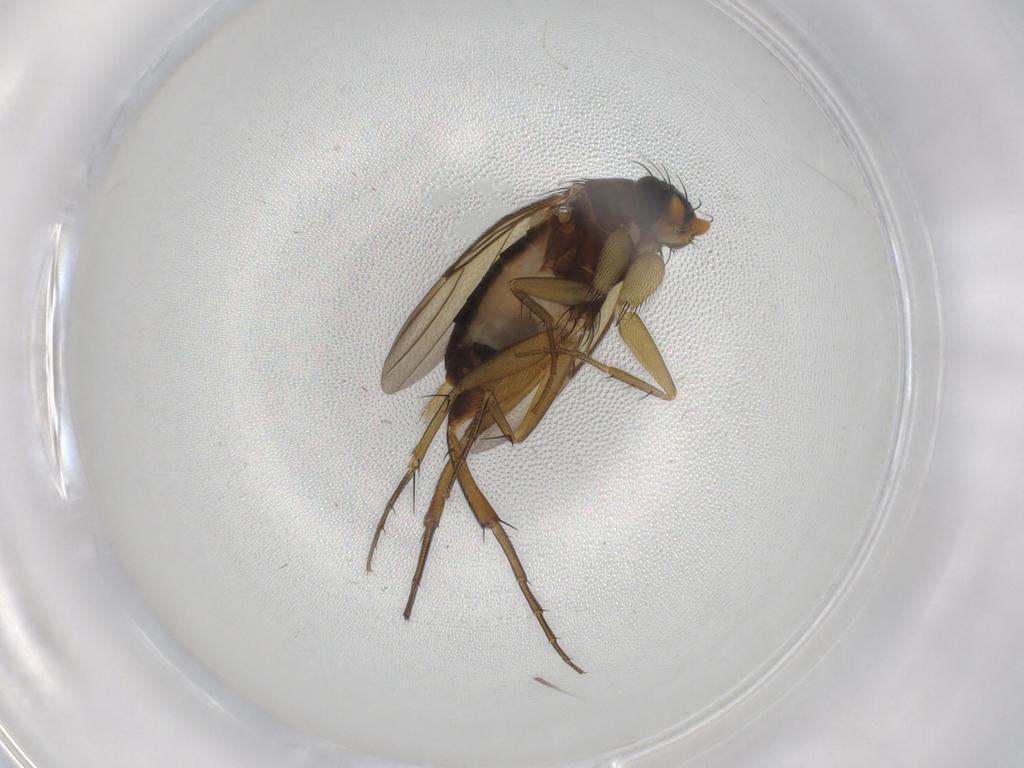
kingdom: Animalia
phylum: Arthropoda
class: Insecta
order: Diptera
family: Phoridae
